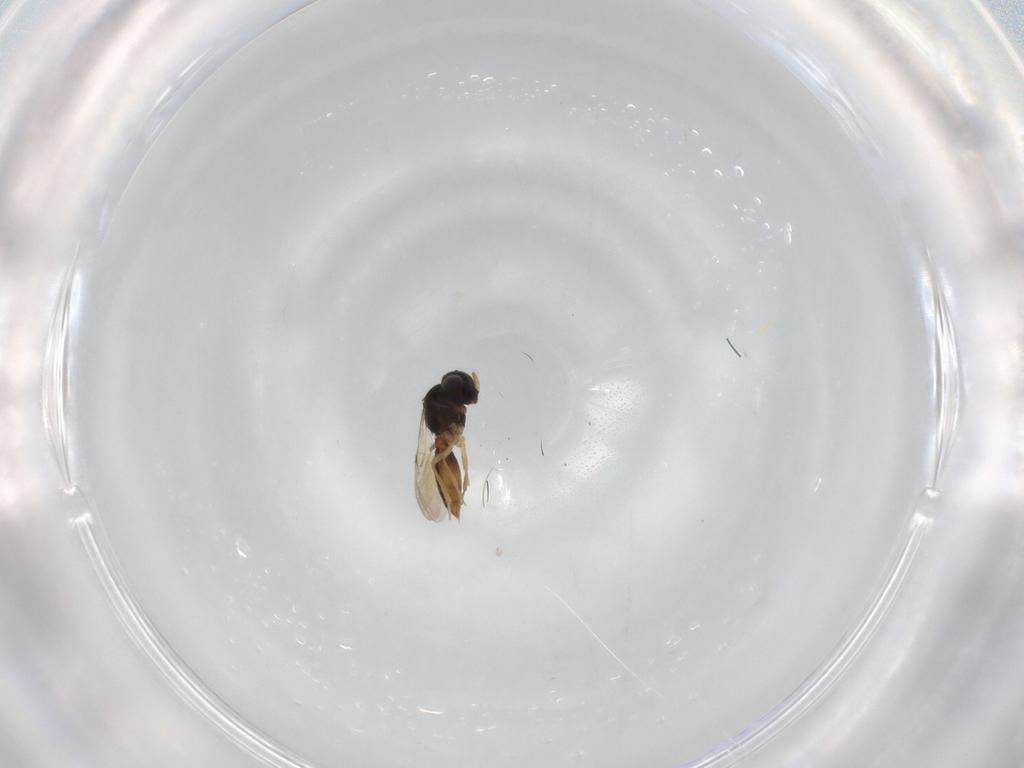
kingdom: Animalia
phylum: Arthropoda
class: Insecta
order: Hymenoptera
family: Scelionidae
